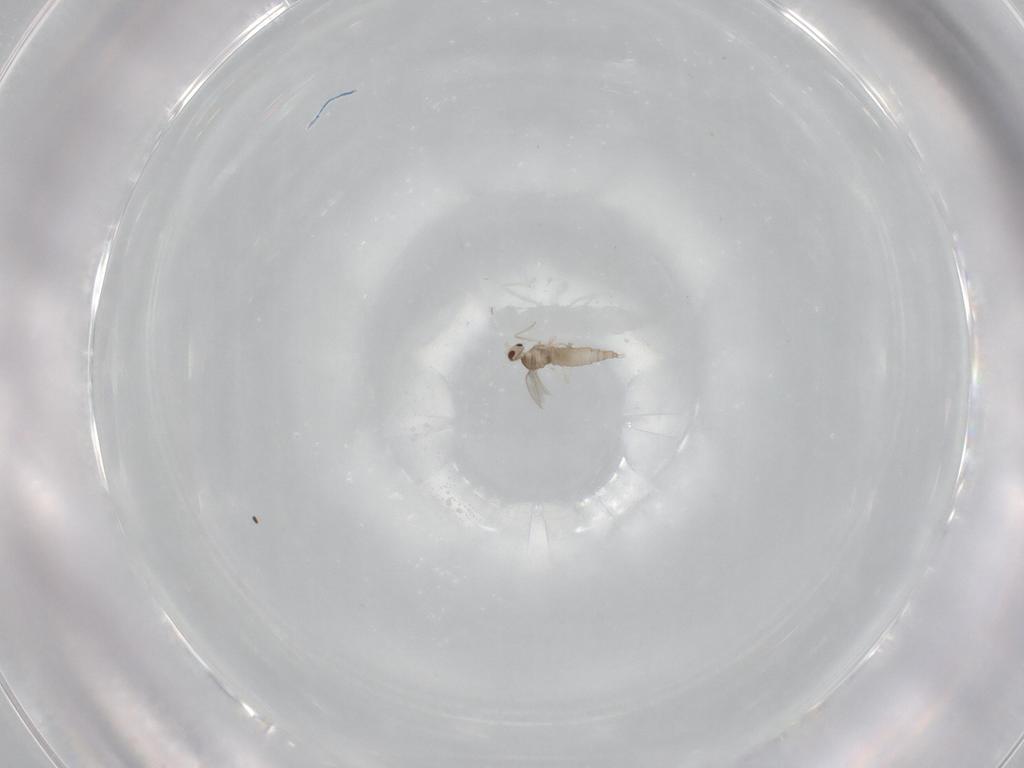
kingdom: Animalia
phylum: Arthropoda
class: Insecta
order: Diptera
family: Cecidomyiidae
